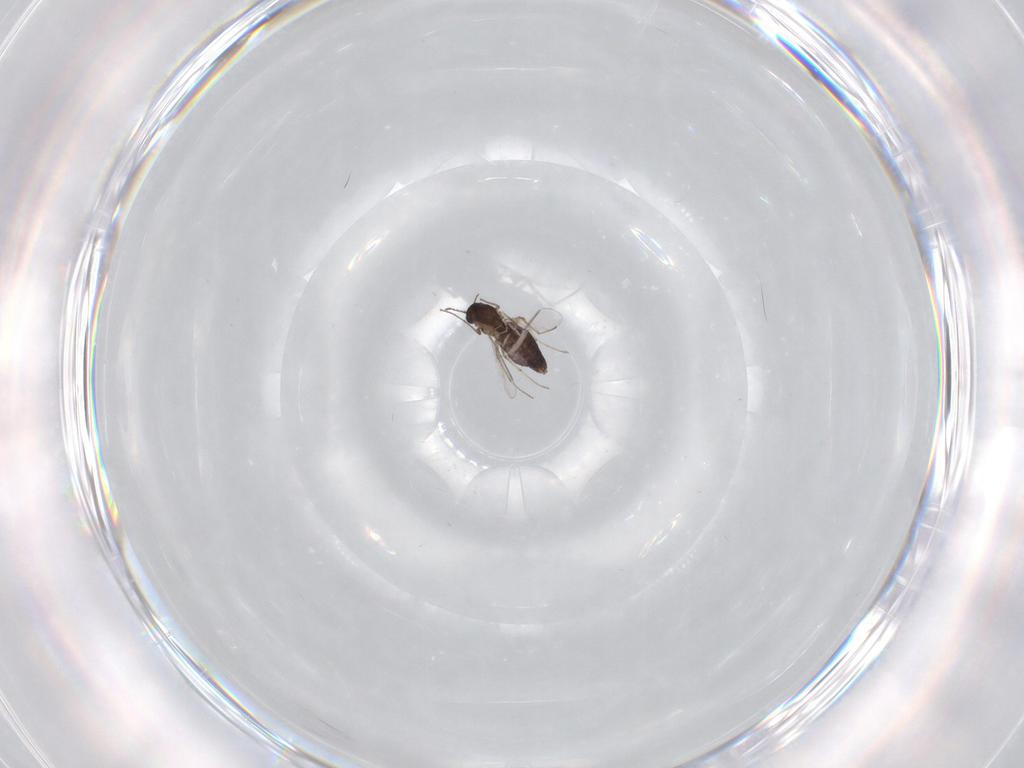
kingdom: Animalia
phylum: Arthropoda
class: Insecta
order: Diptera
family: Chironomidae
